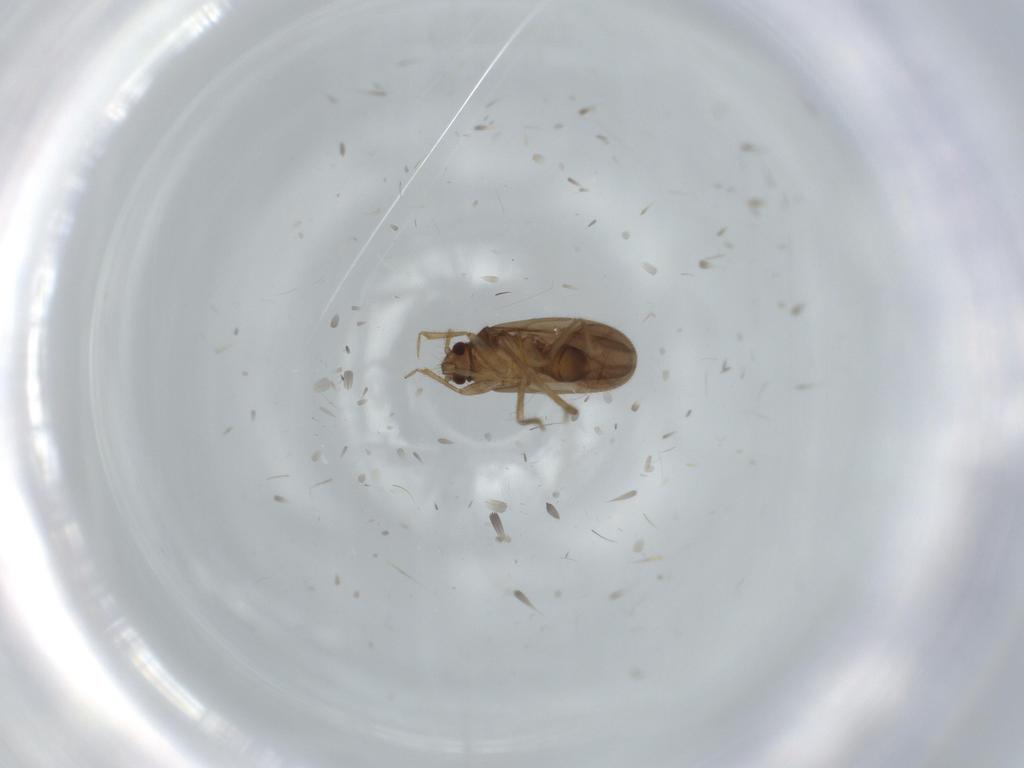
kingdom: Animalia
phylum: Arthropoda
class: Insecta
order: Hemiptera
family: Ceratocombidae
